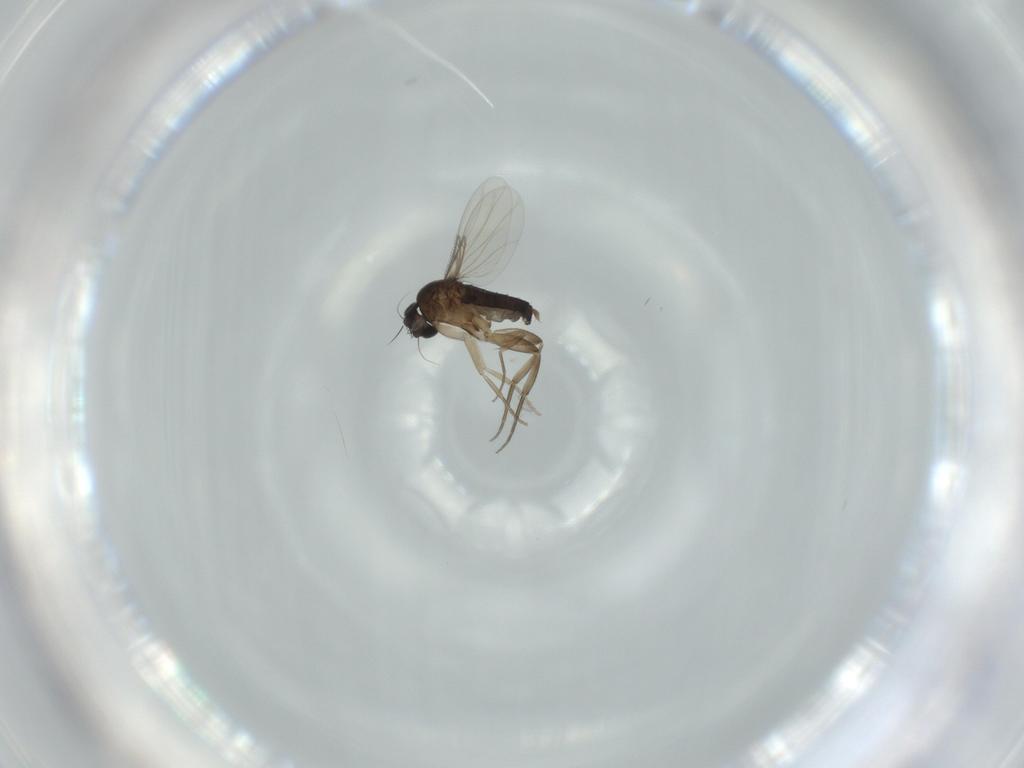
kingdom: Animalia
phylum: Arthropoda
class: Insecta
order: Diptera
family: Phoridae
